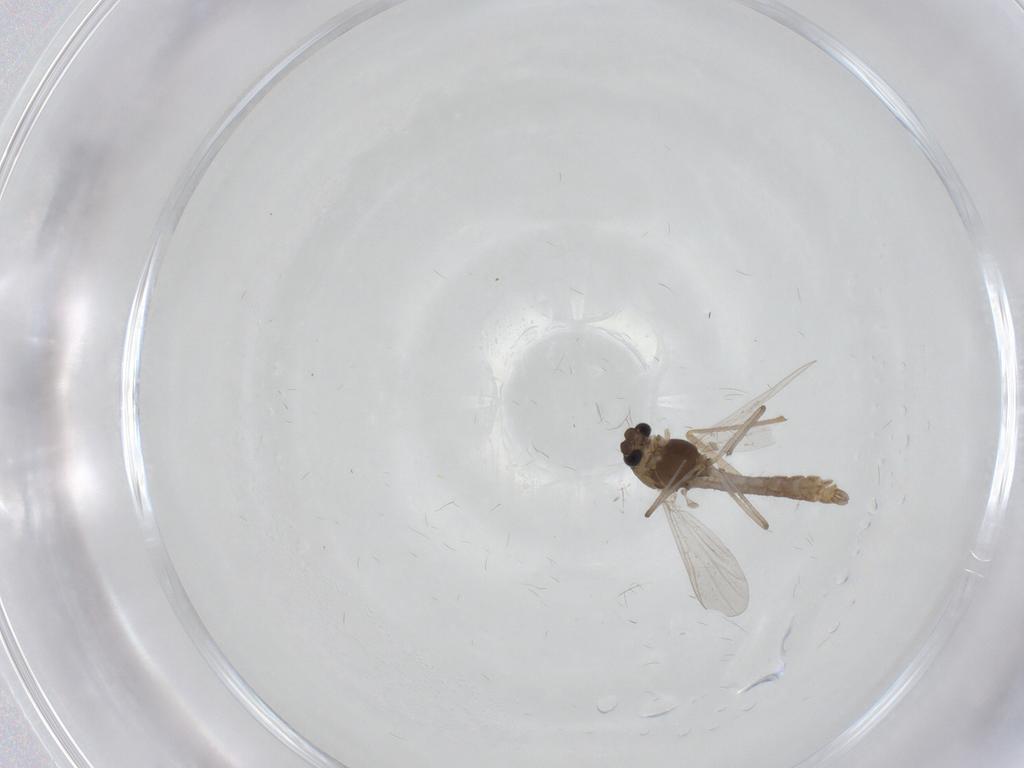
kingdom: Animalia
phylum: Arthropoda
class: Insecta
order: Diptera
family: Chironomidae
